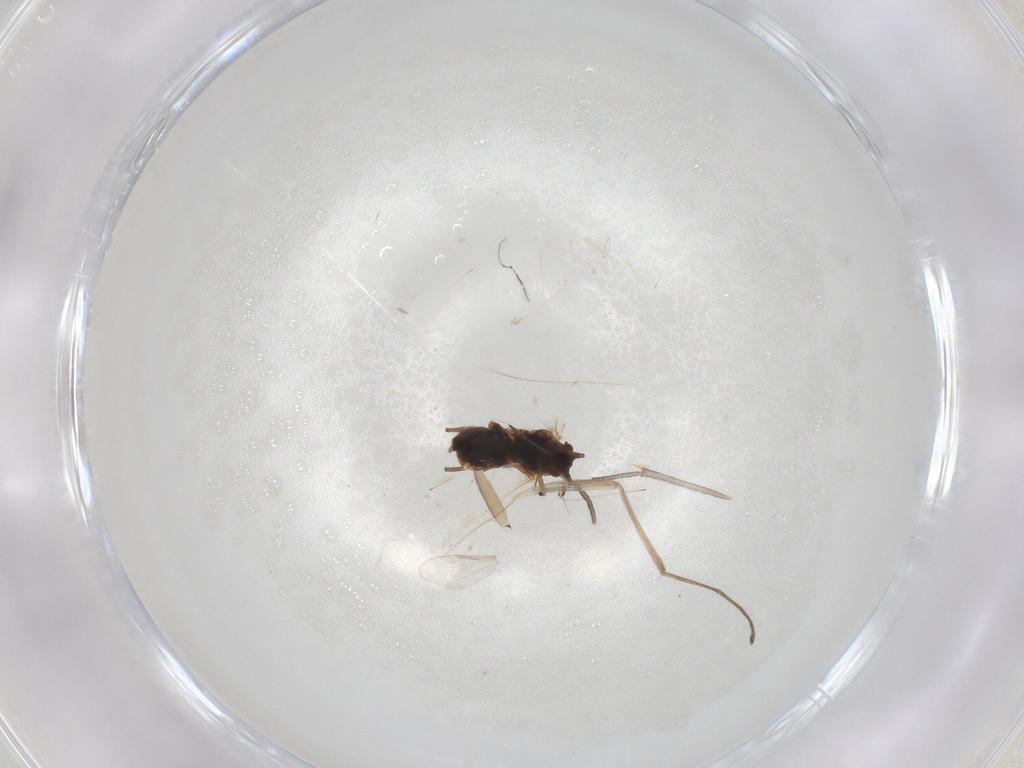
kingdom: Animalia
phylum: Arthropoda
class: Insecta
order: Hemiptera
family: Aphididae
